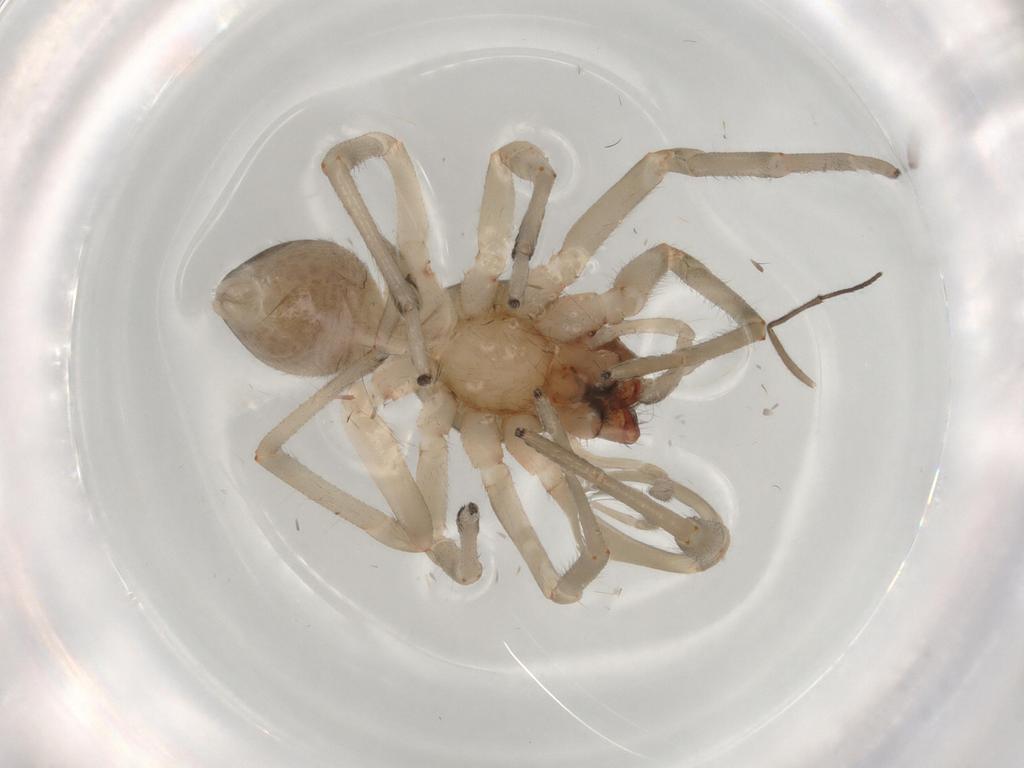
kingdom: Animalia
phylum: Arthropoda
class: Arachnida
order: Araneae
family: Trachelidae
